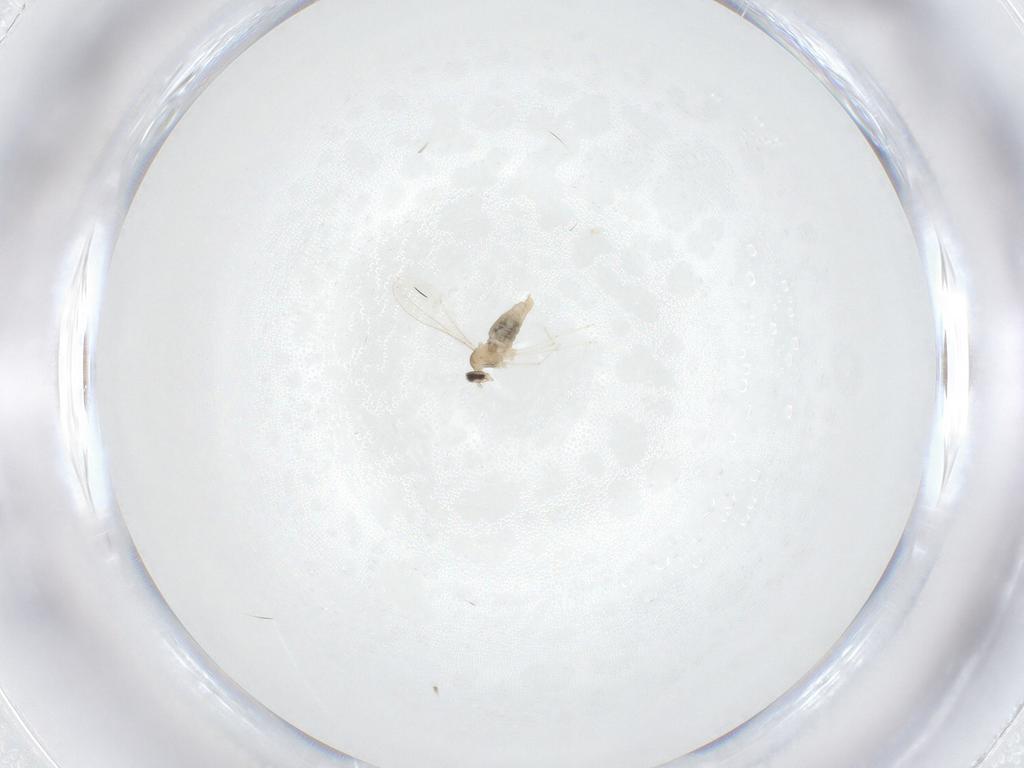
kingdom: Animalia
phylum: Arthropoda
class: Insecta
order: Diptera
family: Cecidomyiidae
